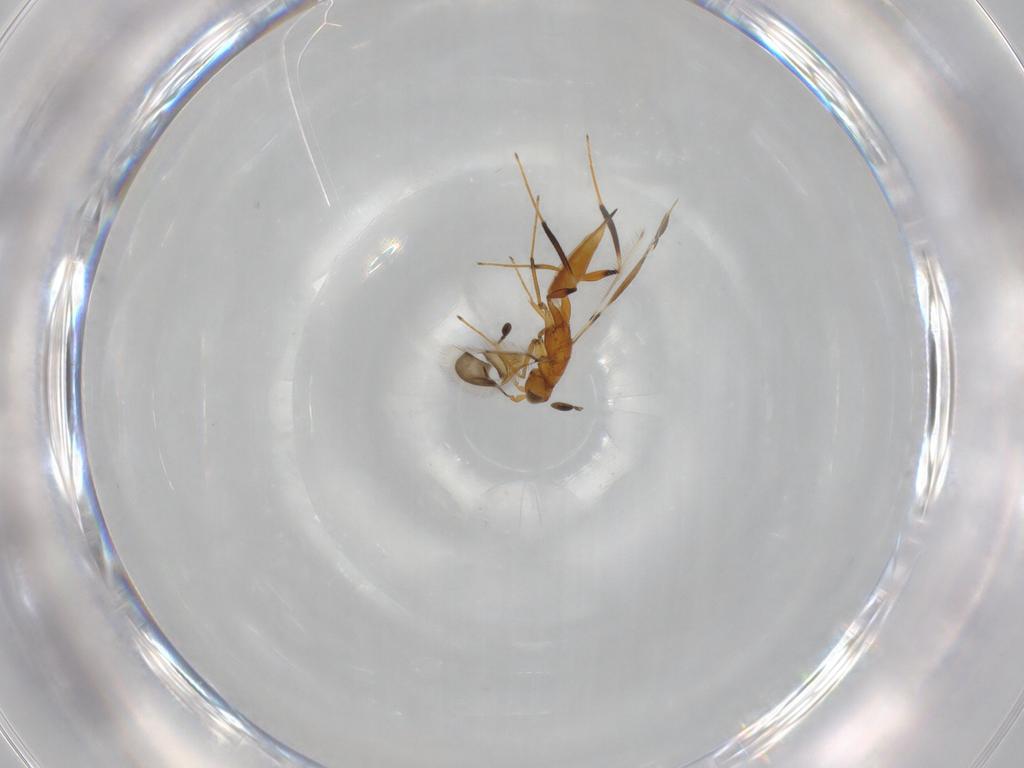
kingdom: Animalia
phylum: Arthropoda
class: Insecta
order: Hymenoptera
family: Mymaridae
